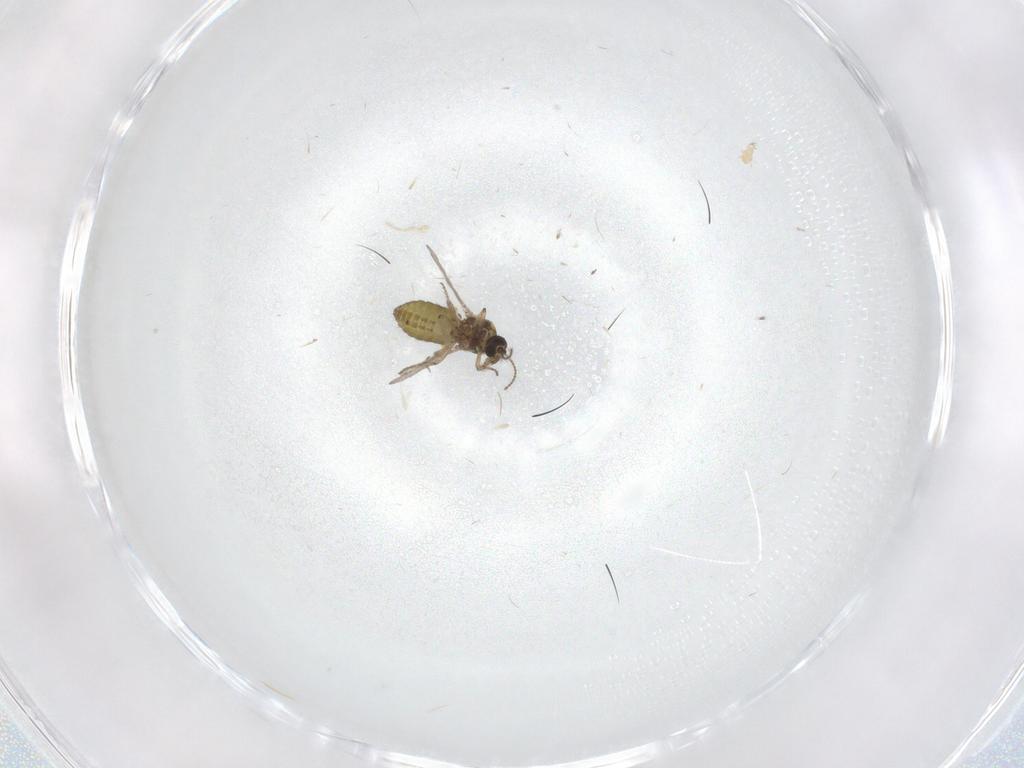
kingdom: Animalia
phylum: Arthropoda
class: Insecta
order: Diptera
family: Ceratopogonidae
